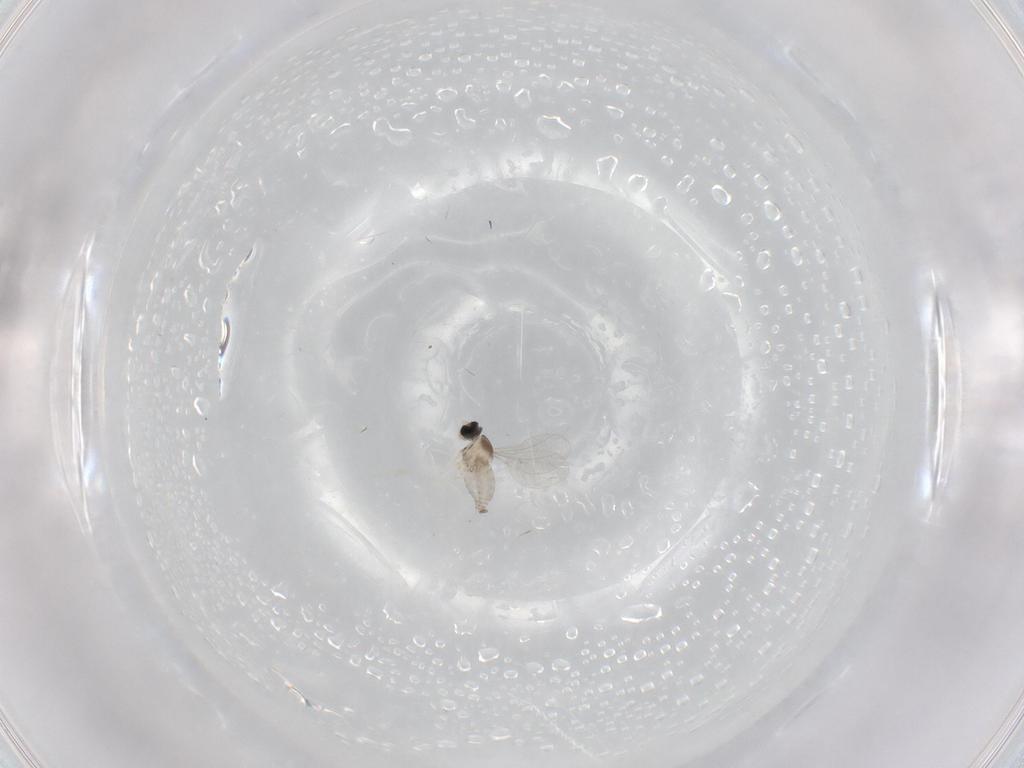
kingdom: Animalia
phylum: Arthropoda
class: Insecta
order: Diptera
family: Cecidomyiidae
